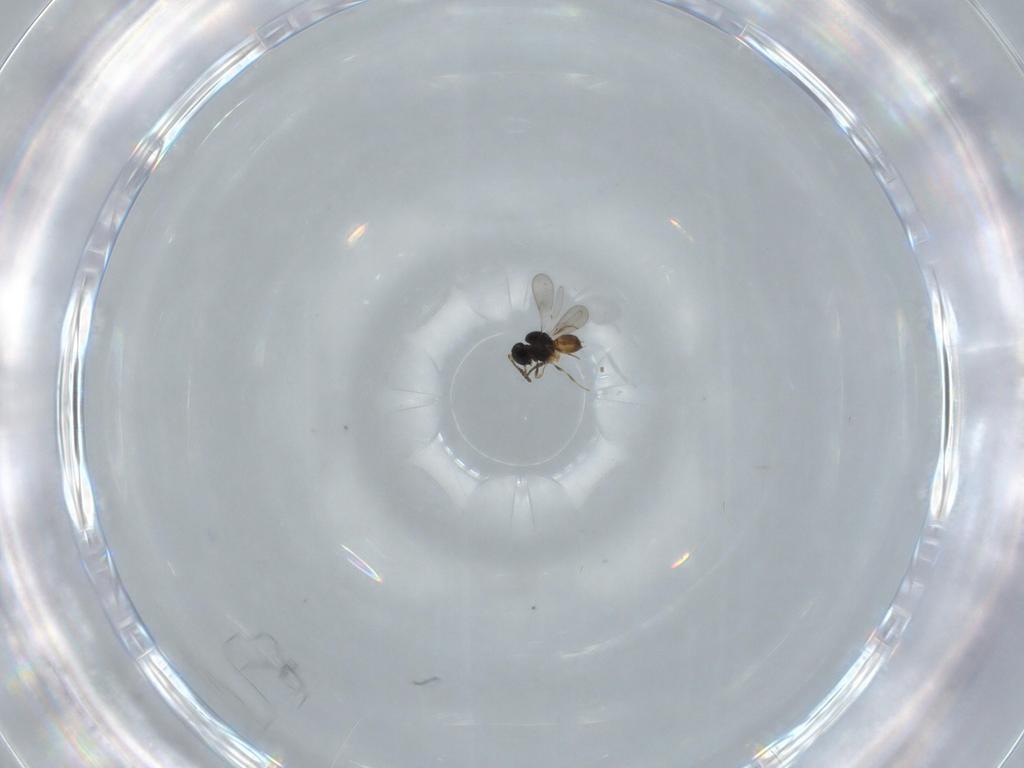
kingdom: Animalia
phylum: Arthropoda
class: Insecta
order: Hymenoptera
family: Scelionidae
